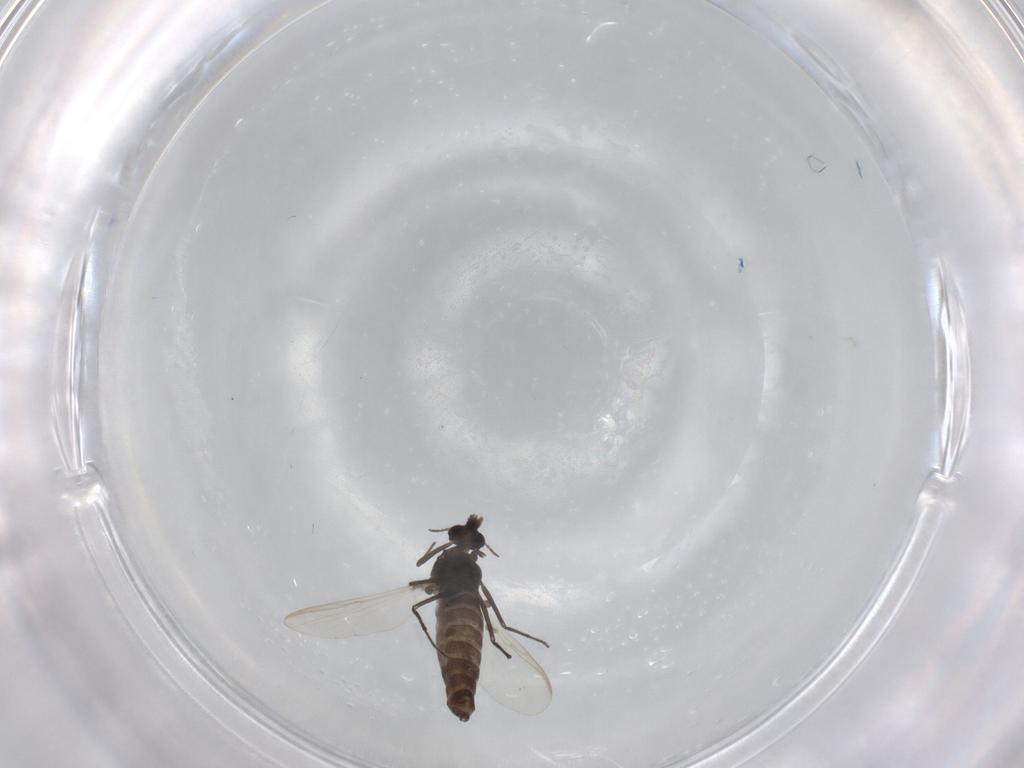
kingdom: Animalia
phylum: Arthropoda
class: Insecta
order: Diptera
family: Chironomidae
